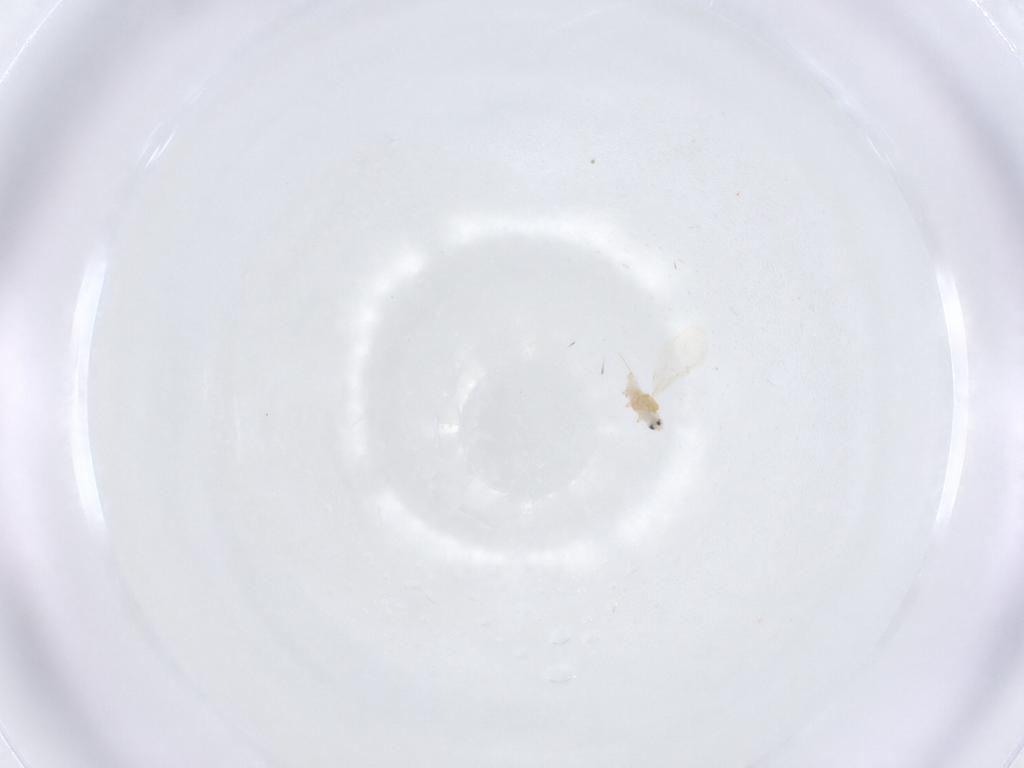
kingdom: Animalia
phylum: Arthropoda
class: Insecta
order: Hemiptera
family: Diaspididae
